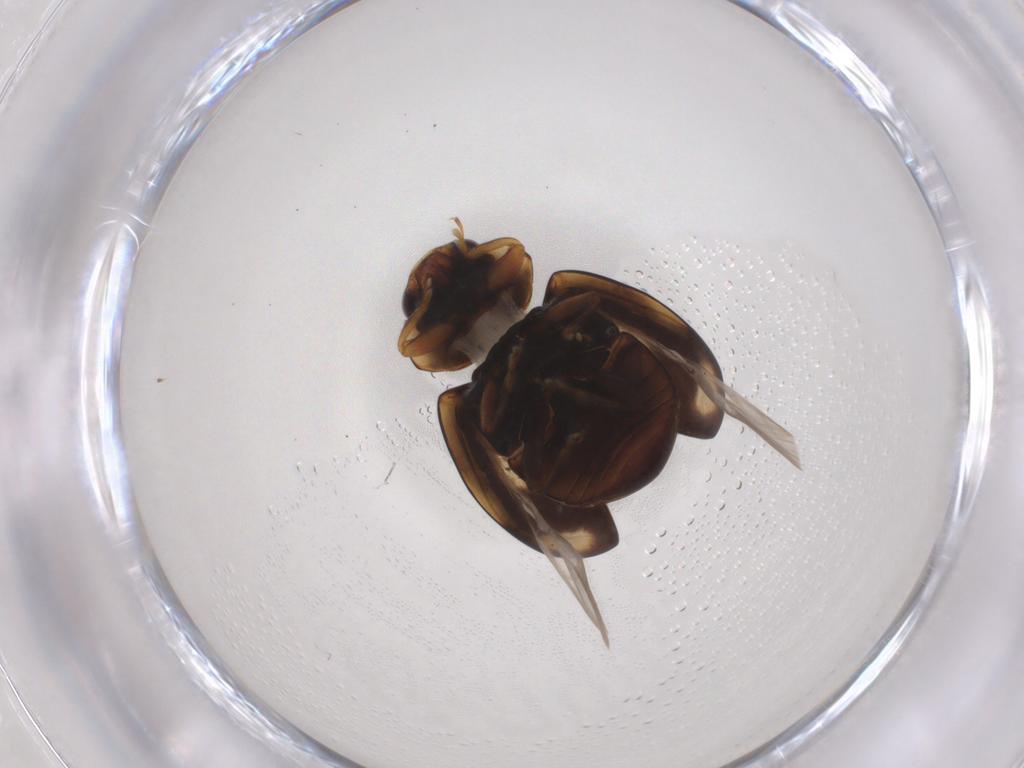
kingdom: Animalia
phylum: Arthropoda
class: Insecta
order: Coleoptera
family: Coccinellidae
